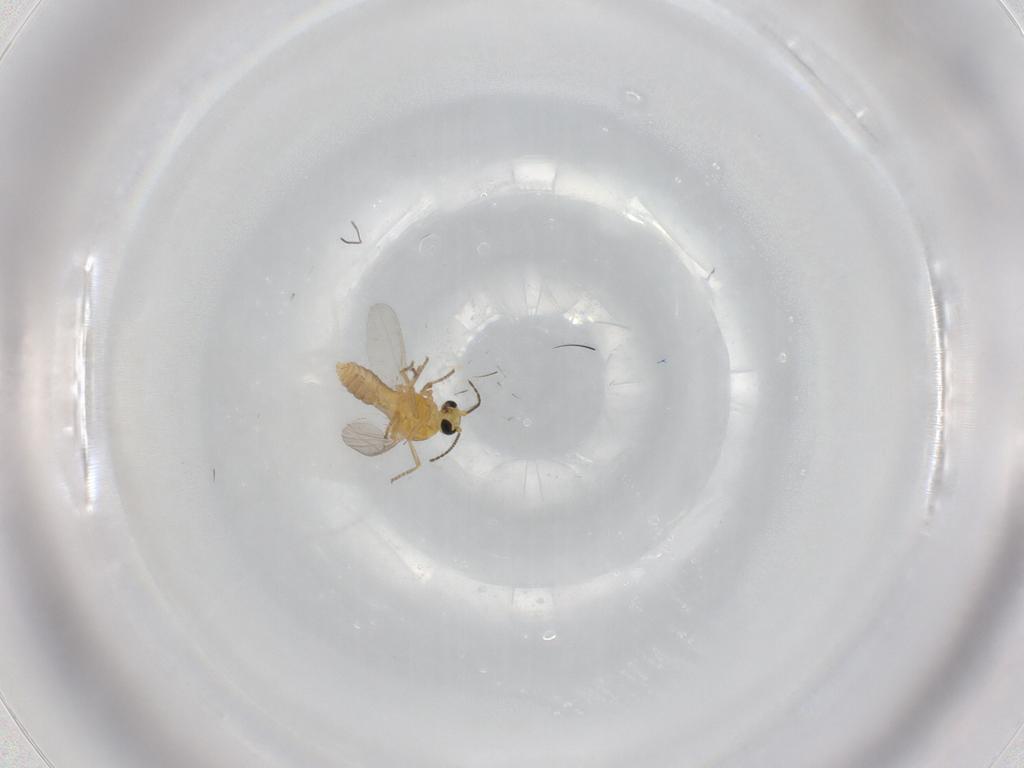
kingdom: Animalia
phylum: Arthropoda
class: Insecta
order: Diptera
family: Ceratopogonidae
